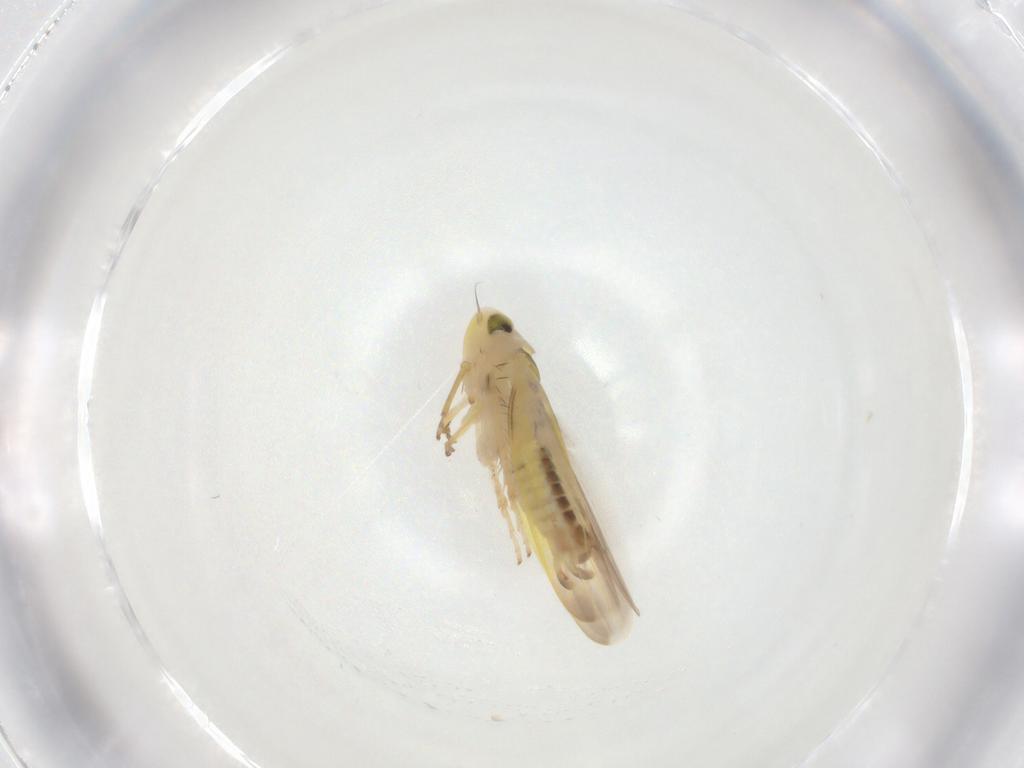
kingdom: Animalia
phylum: Arthropoda
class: Insecta
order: Hemiptera
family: Cicadellidae
